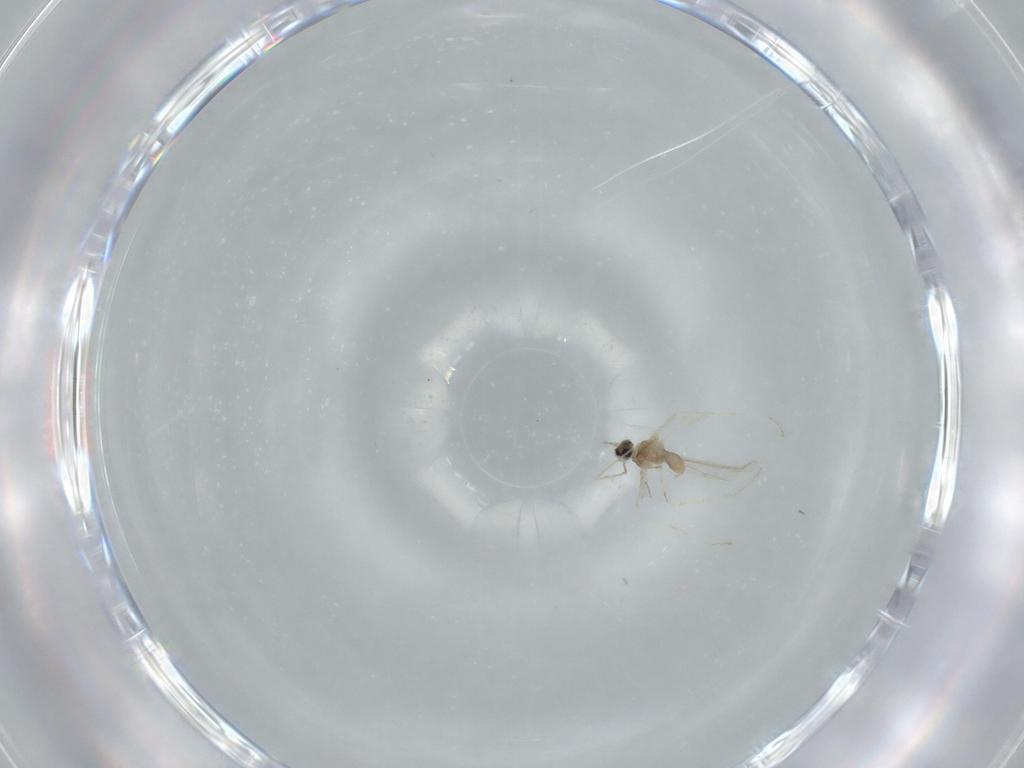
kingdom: Animalia
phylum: Arthropoda
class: Insecta
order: Diptera
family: Cecidomyiidae
